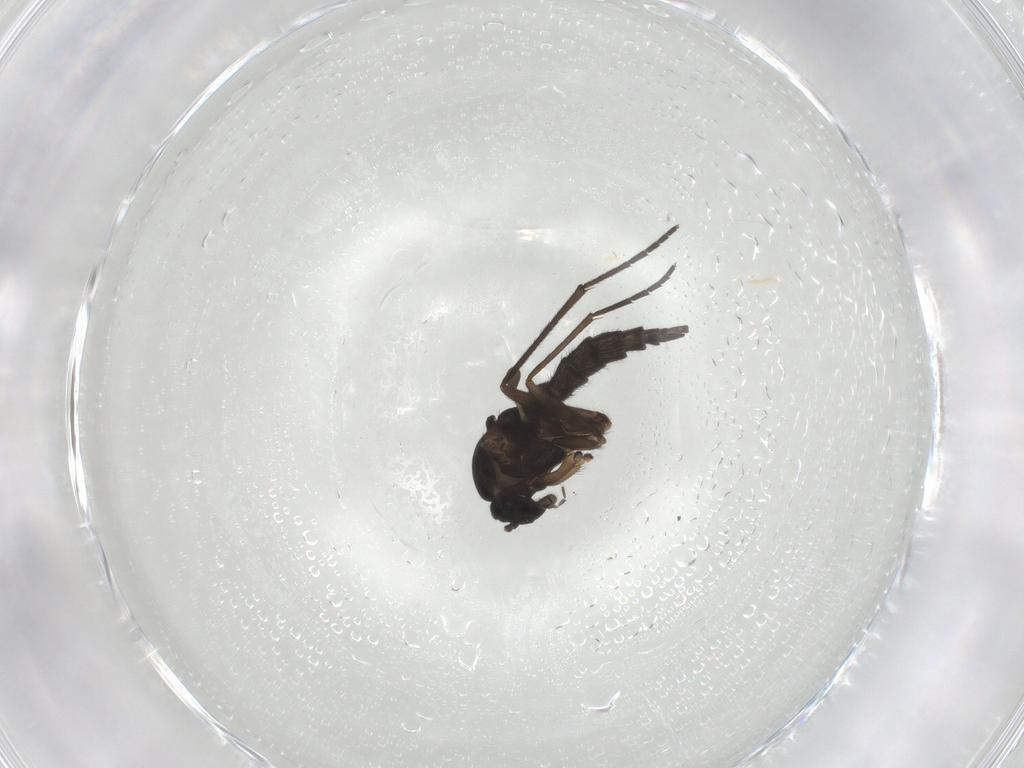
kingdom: Animalia
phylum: Arthropoda
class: Insecta
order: Diptera
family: Sciaridae
